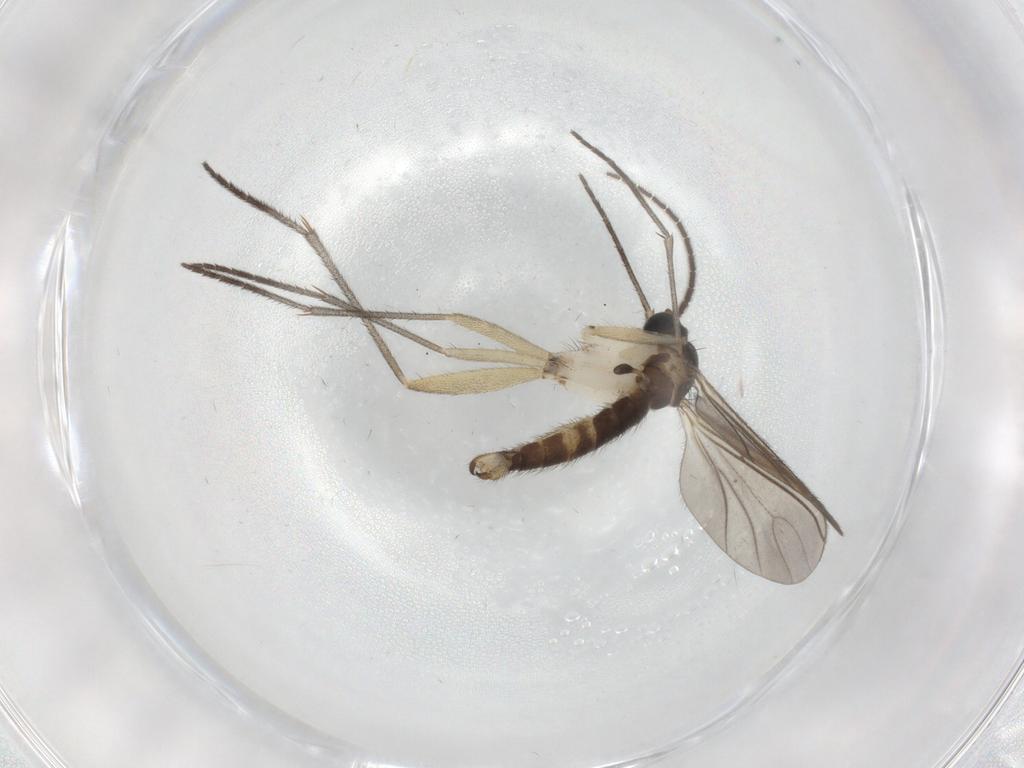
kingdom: Animalia
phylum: Arthropoda
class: Insecta
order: Diptera
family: Sciaridae
